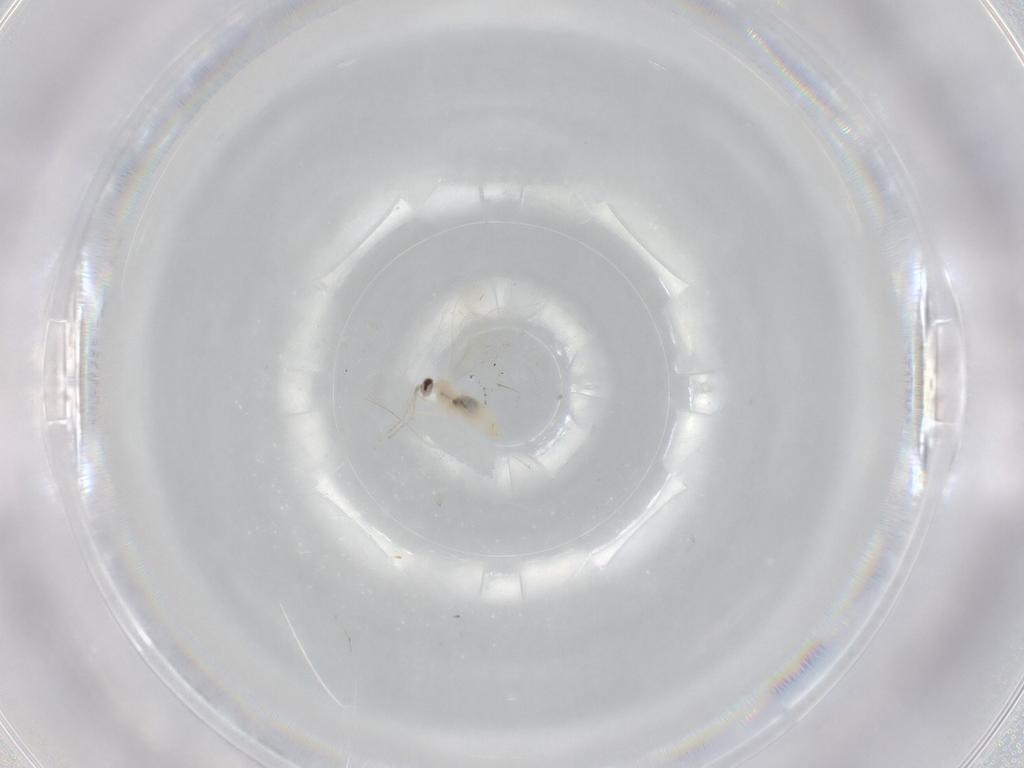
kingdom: Animalia
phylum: Arthropoda
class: Insecta
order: Diptera
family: Cecidomyiidae
